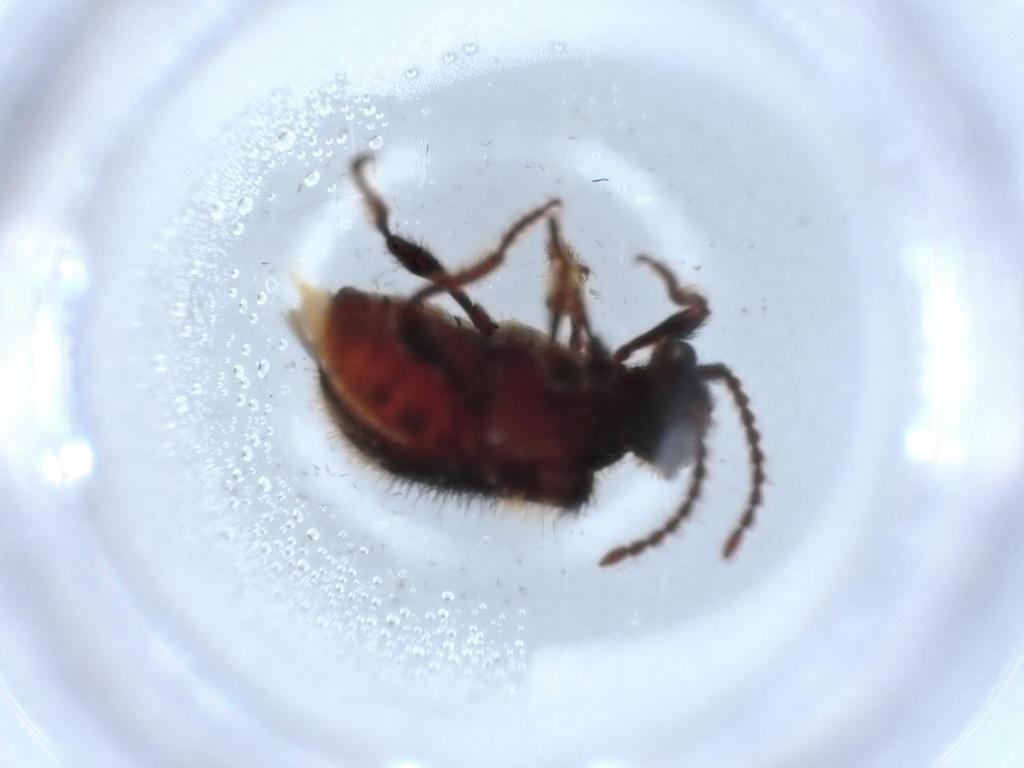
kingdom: Animalia
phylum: Arthropoda
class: Insecta
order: Coleoptera
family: Ptinidae
